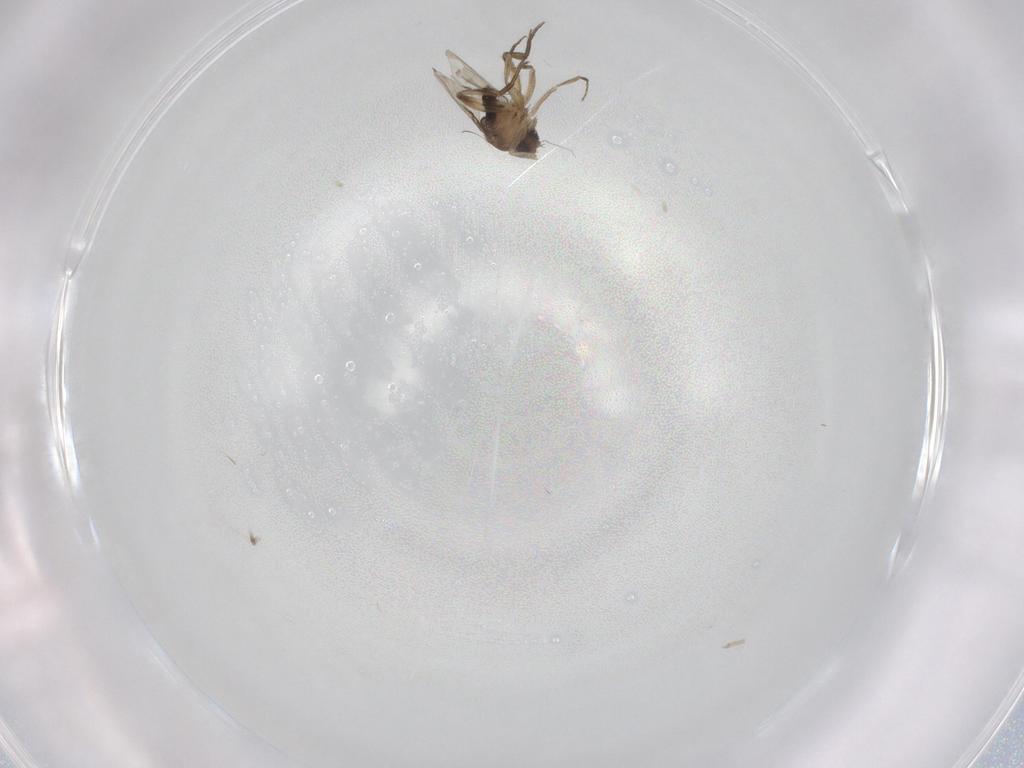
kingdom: Animalia
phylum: Arthropoda
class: Insecta
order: Diptera
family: Phoridae
